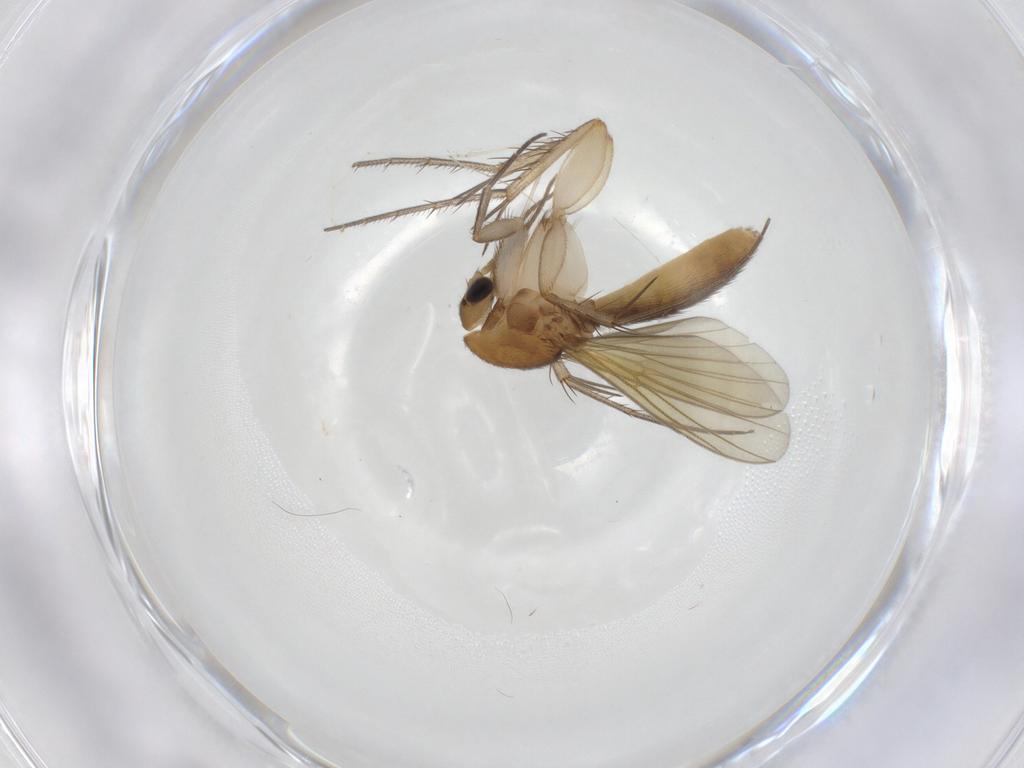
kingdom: Animalia
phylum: Arthropoda
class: Insecta
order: Diptera
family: Cecidomyiidae
